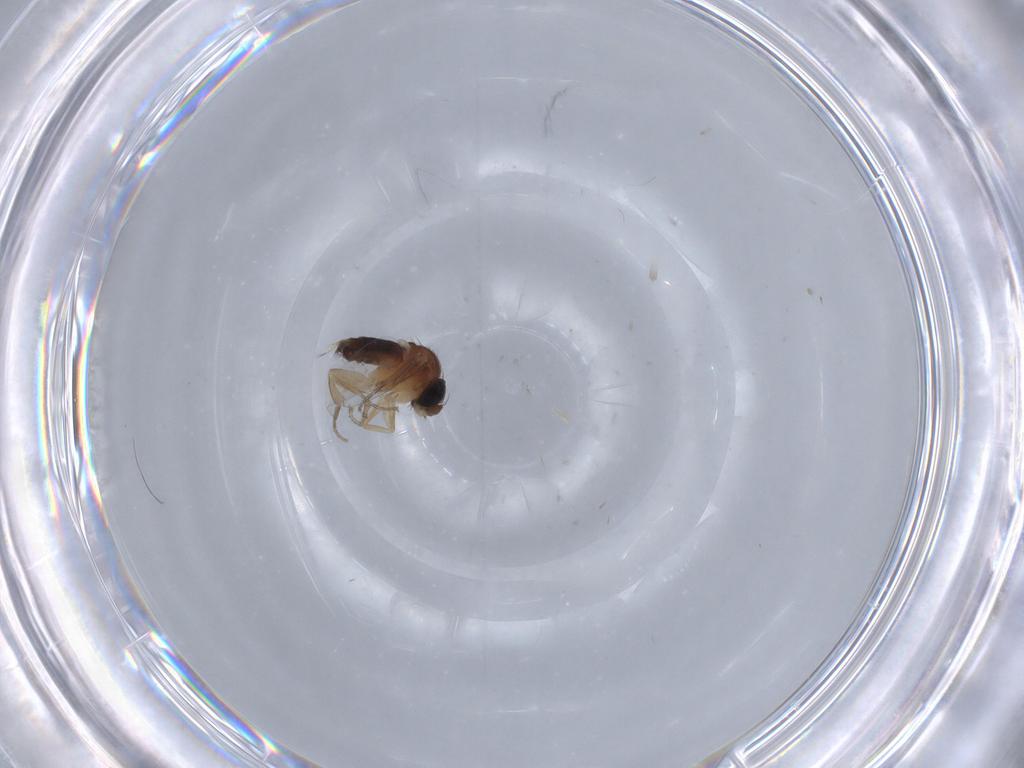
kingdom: Animalia
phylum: Arthropoda
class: Insecta
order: Diptera
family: Phoridae
